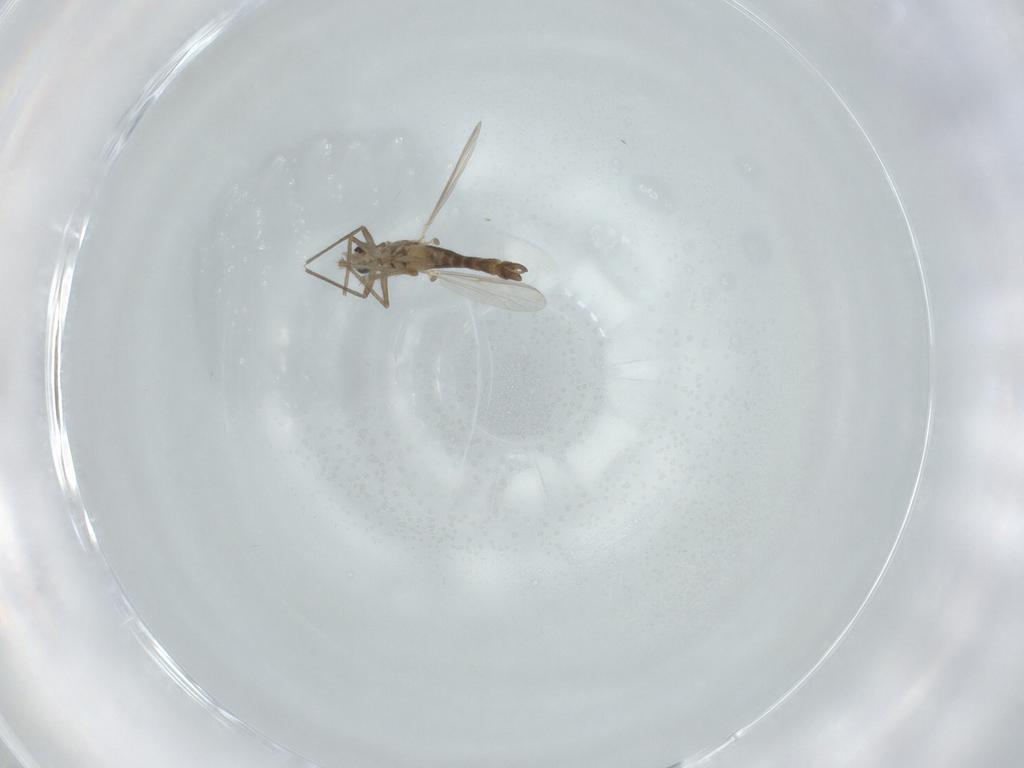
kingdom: Animalia
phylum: Arthropoda
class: Insecta
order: Diptera
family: Chironomidae
